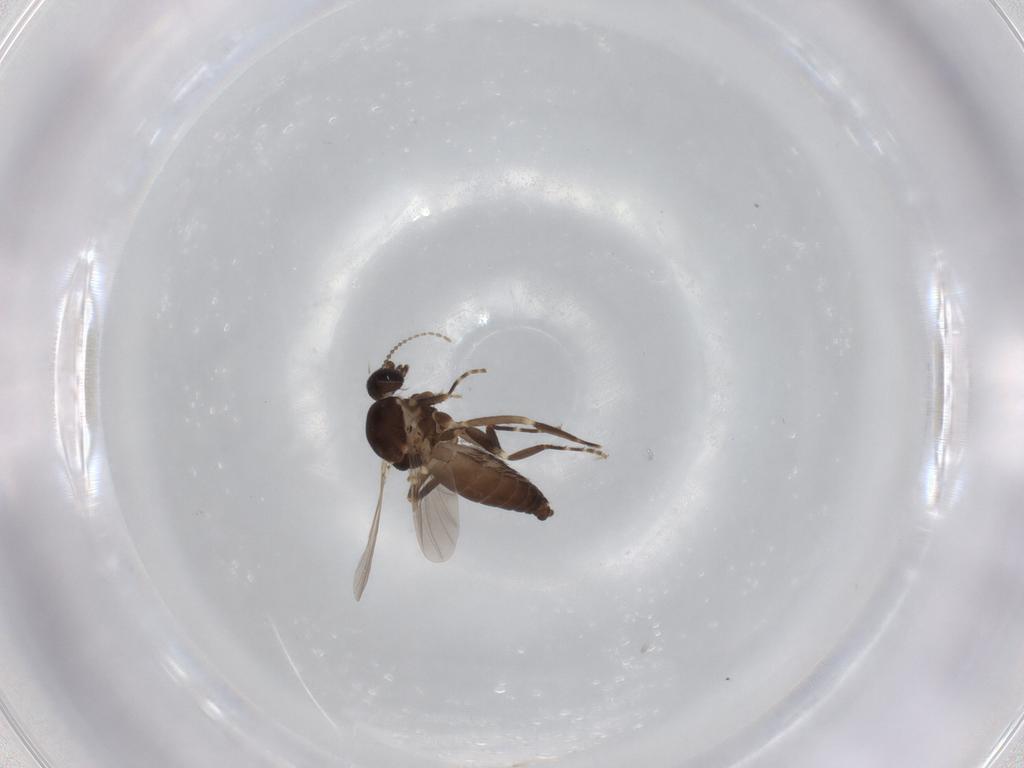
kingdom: Animalia
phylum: Arthropoda
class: Insecta
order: Diptera
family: Ceratopogonidae
